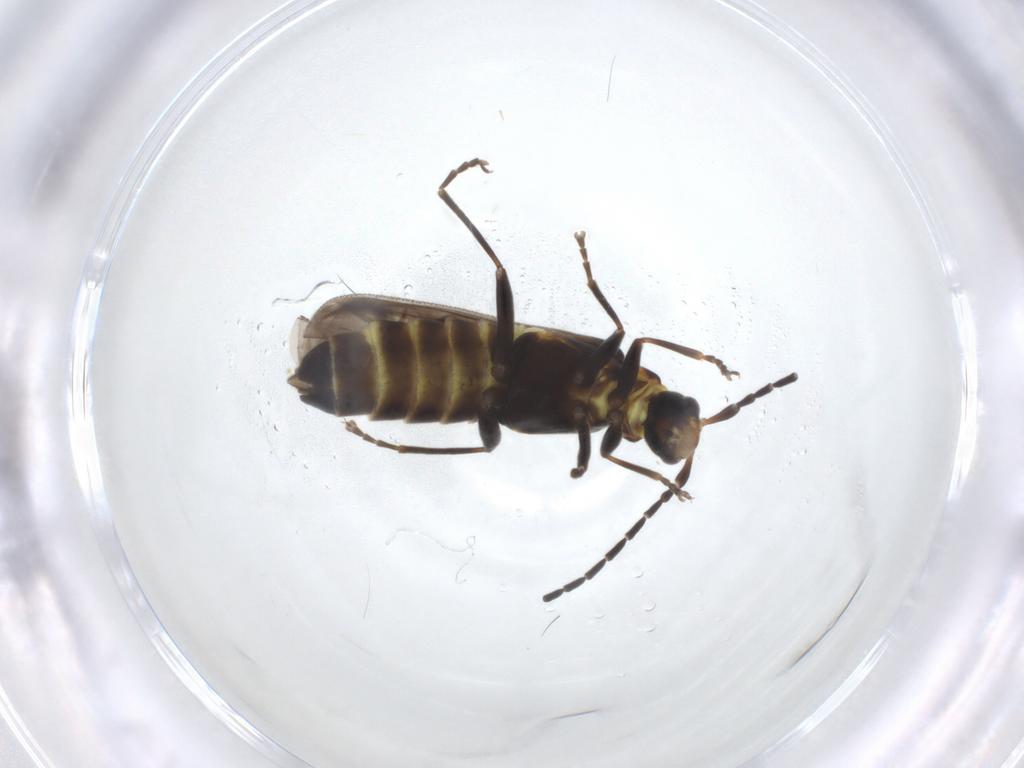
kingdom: Animalia
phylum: Arthropoda
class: Insecta
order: Coleoptera
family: Cantharidae
